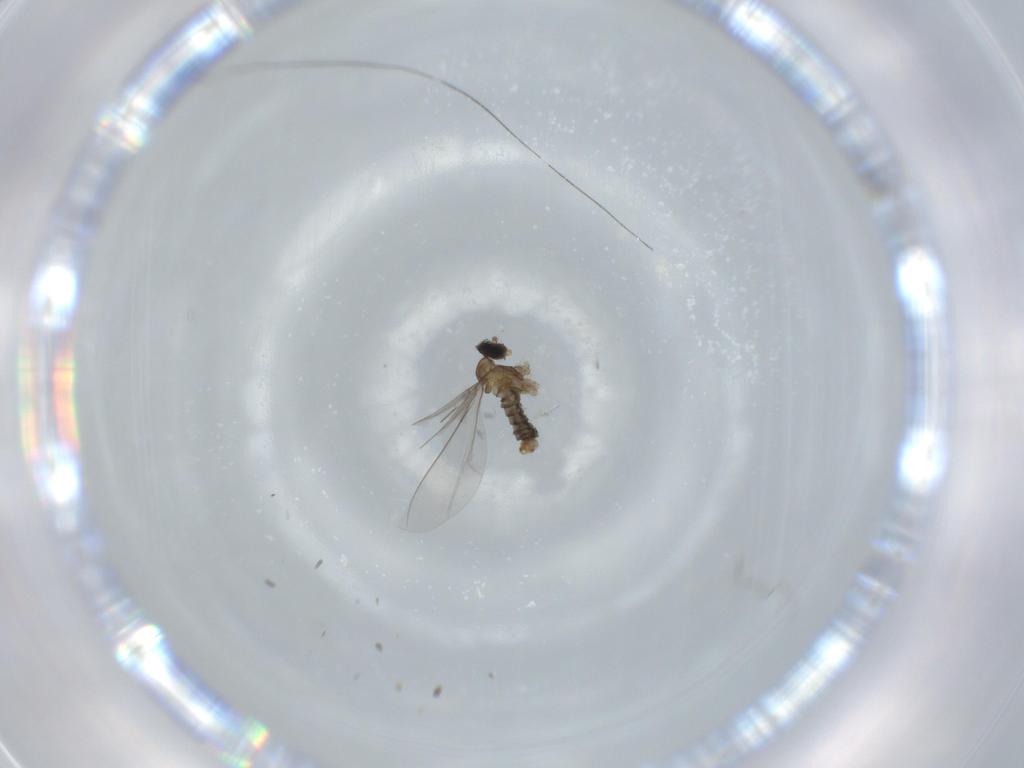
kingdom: Animalia
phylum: Arthropoda
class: Insecta
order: Diptera
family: Cecidomyiidae
